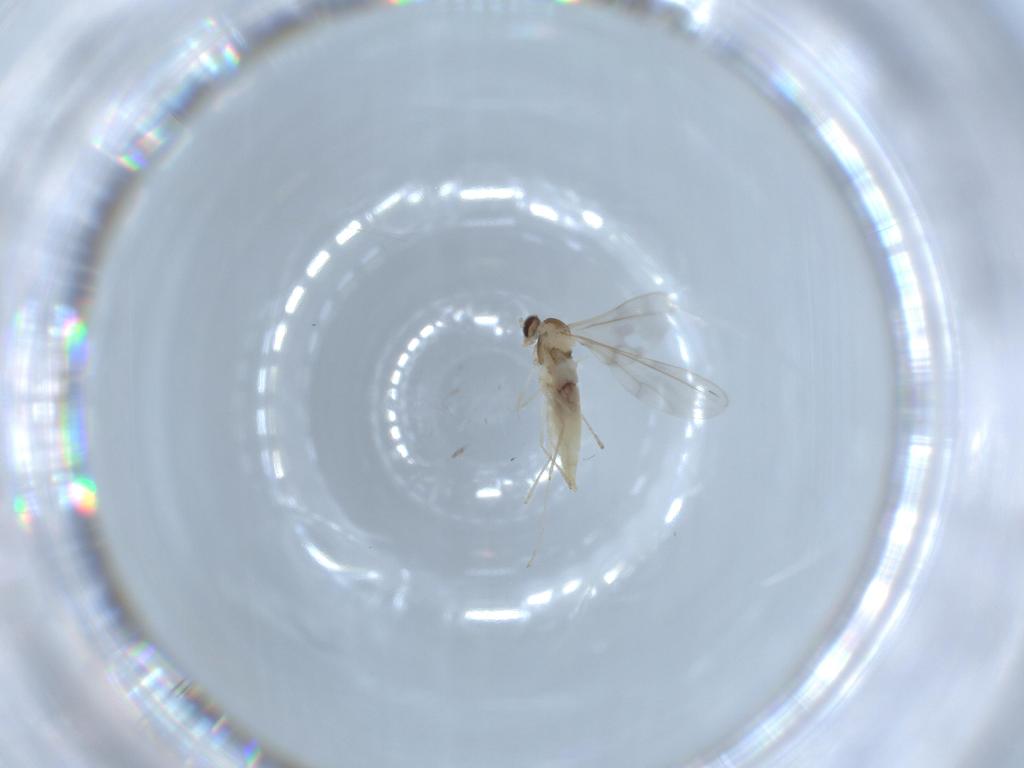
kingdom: Animalia
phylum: Arthropoda
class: Insecta
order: Diptera
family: Cecidomyiidae
